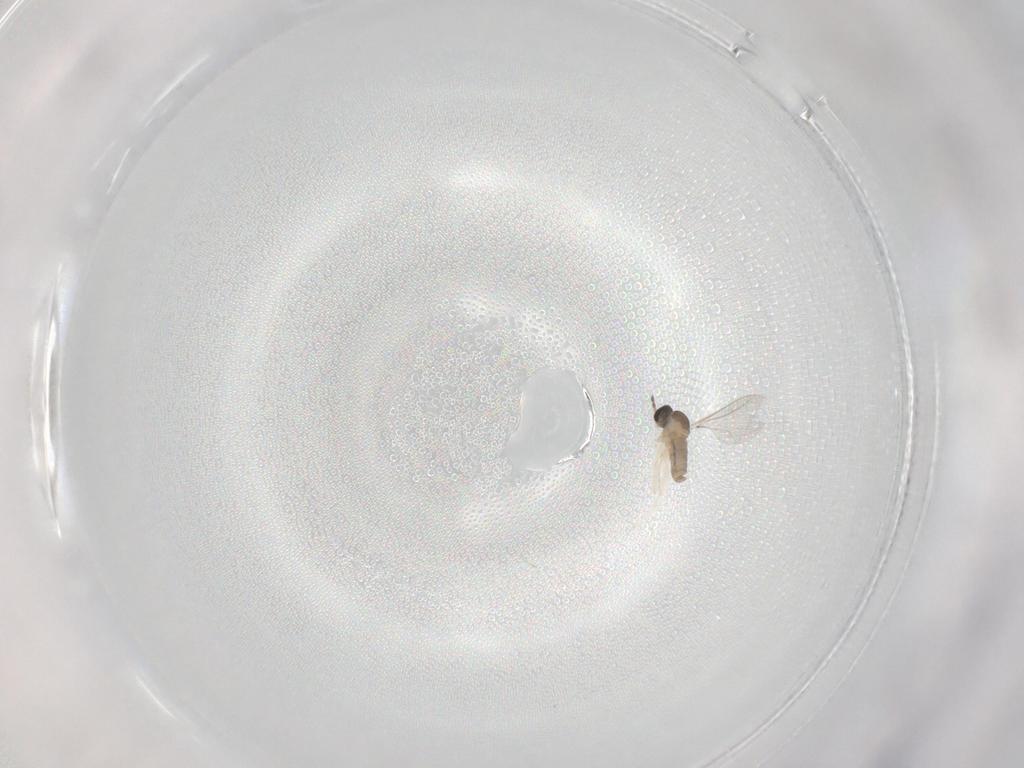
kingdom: Animalia
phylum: Arthropoda
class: Insecta
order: Diptera
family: Cecidomyiidae
